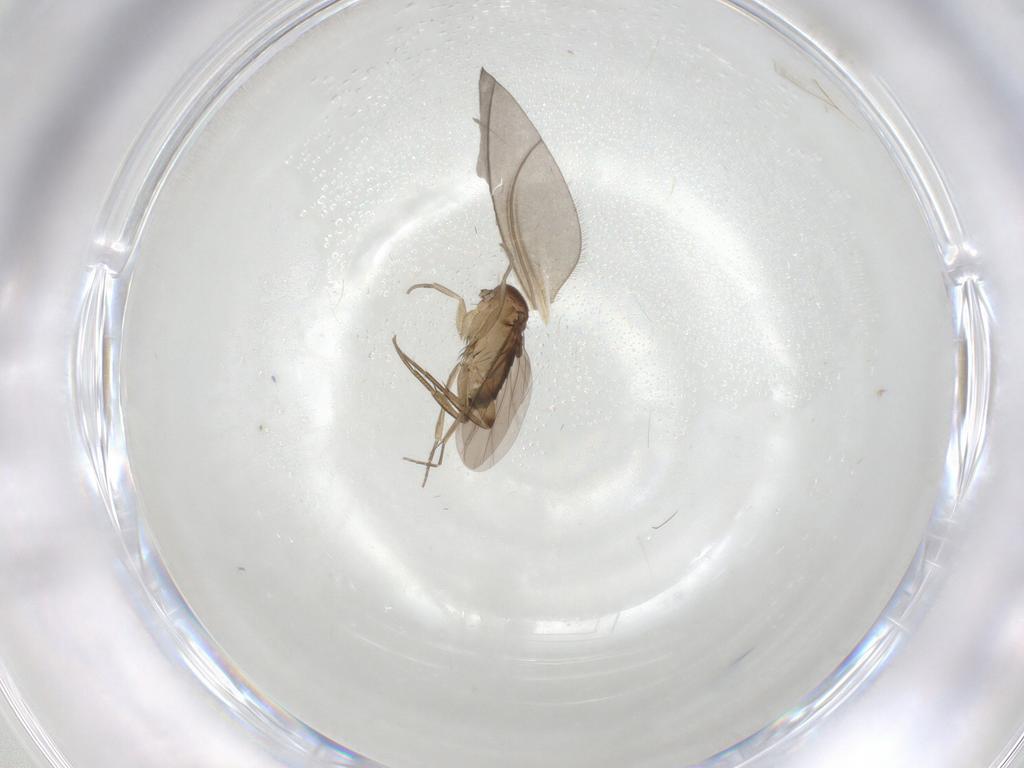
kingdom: Animalia
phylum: Arthropoda
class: Insecta
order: Diptera
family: Phoridae
